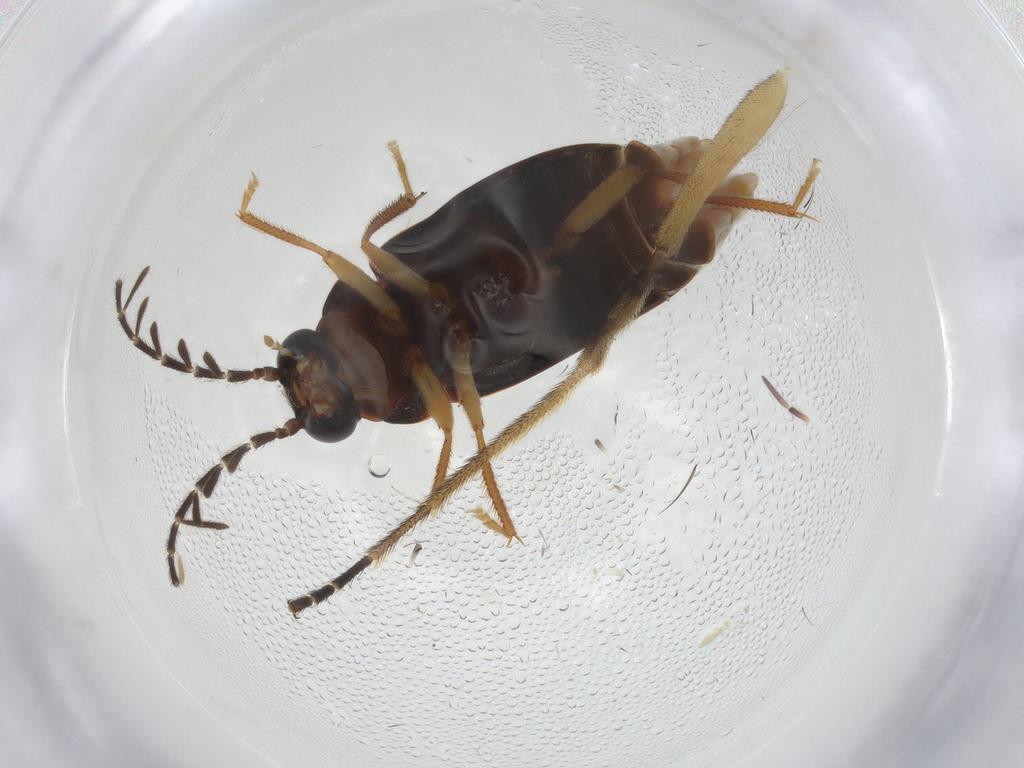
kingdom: Animalia
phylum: Arthropoda
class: Insecta
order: Coleoptera
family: Ptilodactylidae
